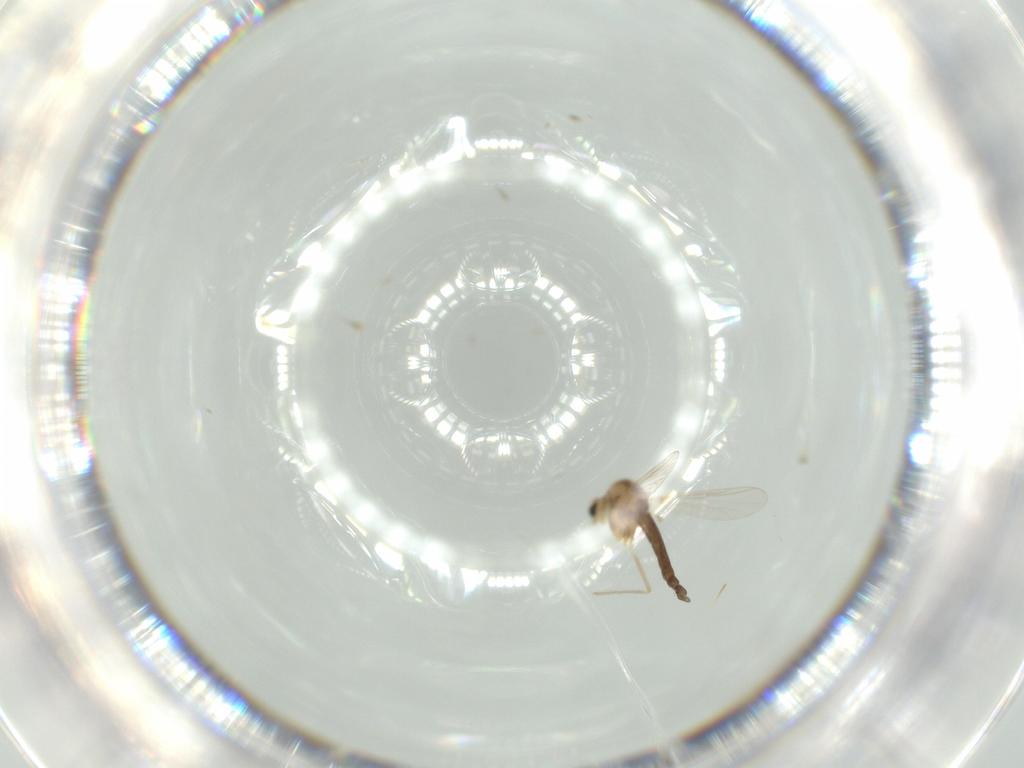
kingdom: Animalia
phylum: Arthropoda
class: Insecta
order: Diptera
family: Chironomidae
